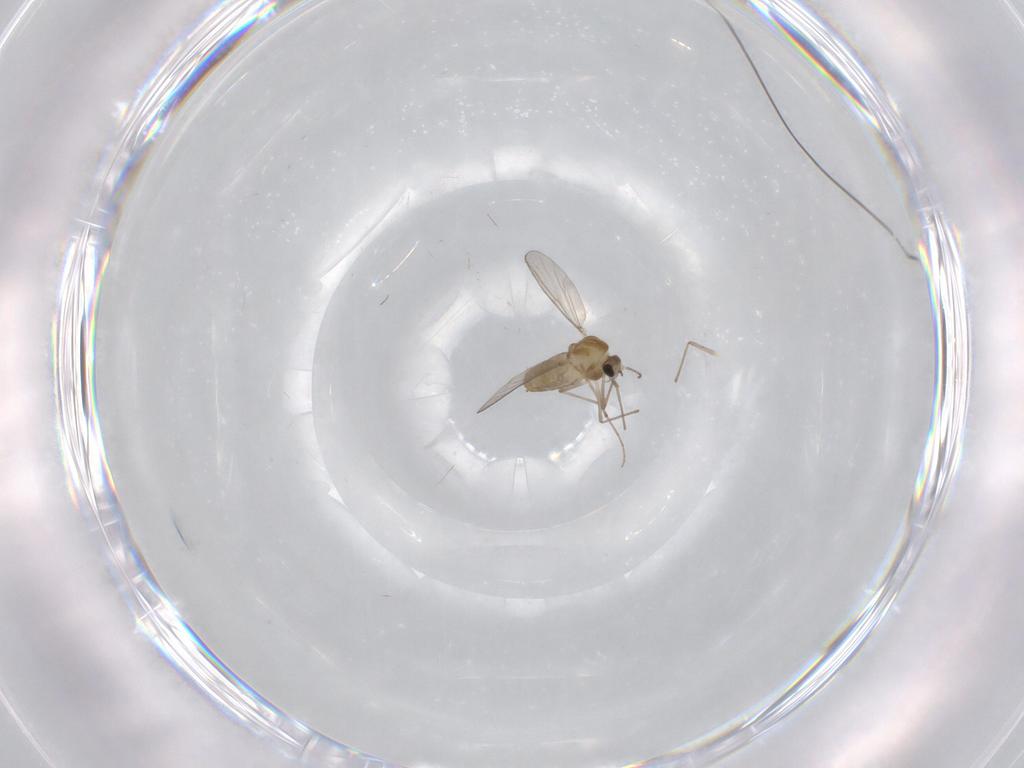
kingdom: Animalia
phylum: Arthropoda
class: Insecta
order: Diptera
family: Chironomidae
